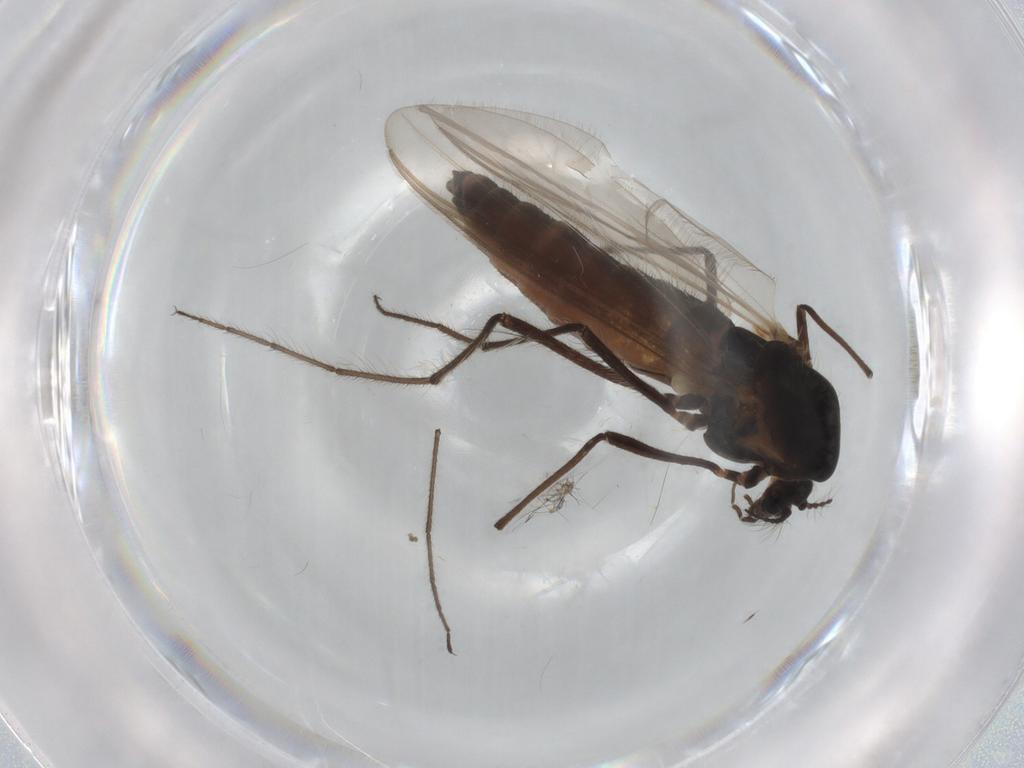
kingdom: Animalia
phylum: Arthropoda
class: Insecta
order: Diptera
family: Chironomidae
